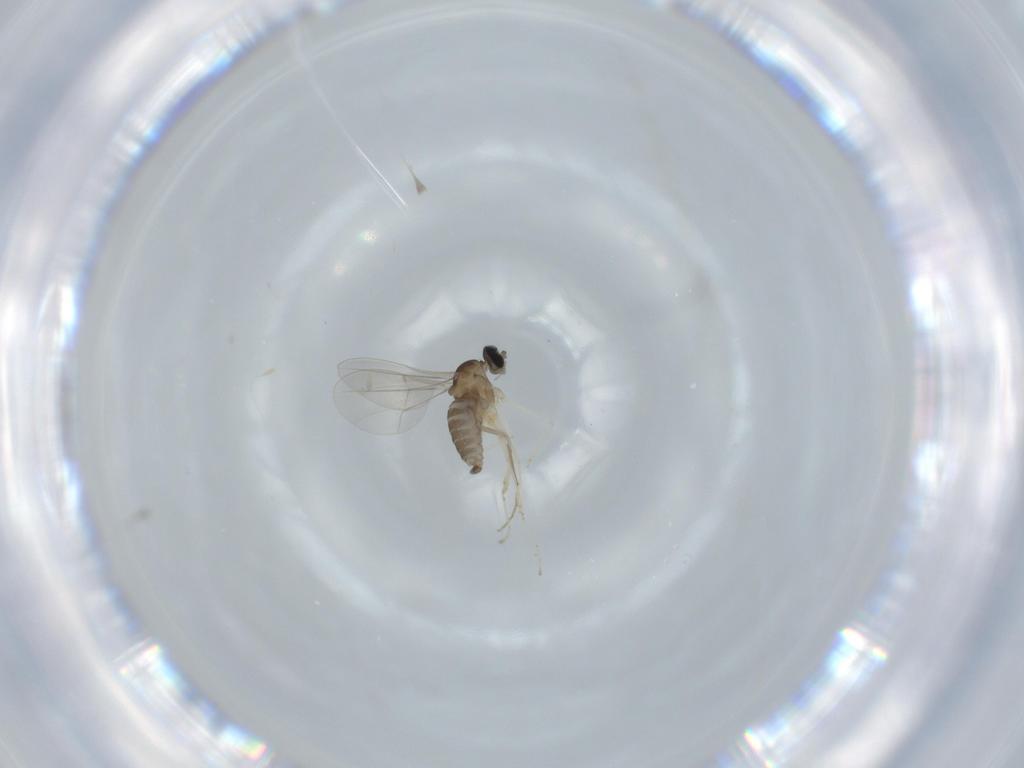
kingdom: Animalia
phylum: Arthropoda
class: Insecta
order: Diptera
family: Cecidomyiidae
